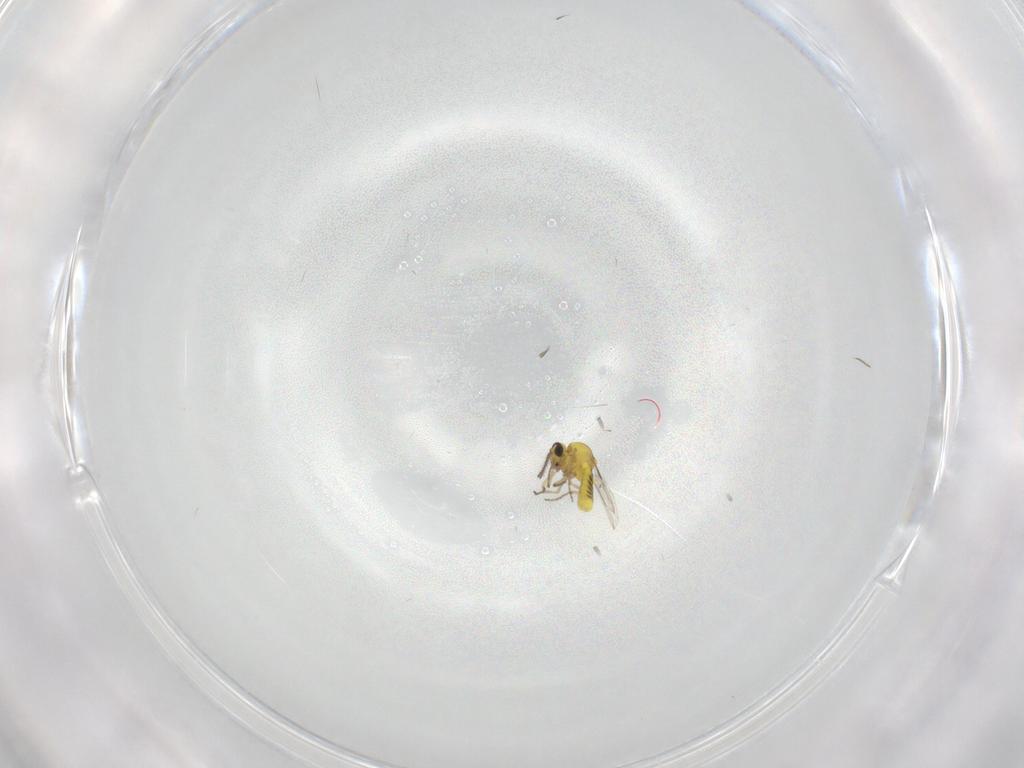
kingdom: Animalia
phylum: Arthropoda
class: Insecta
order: Diptera
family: Ceratopogonidae
